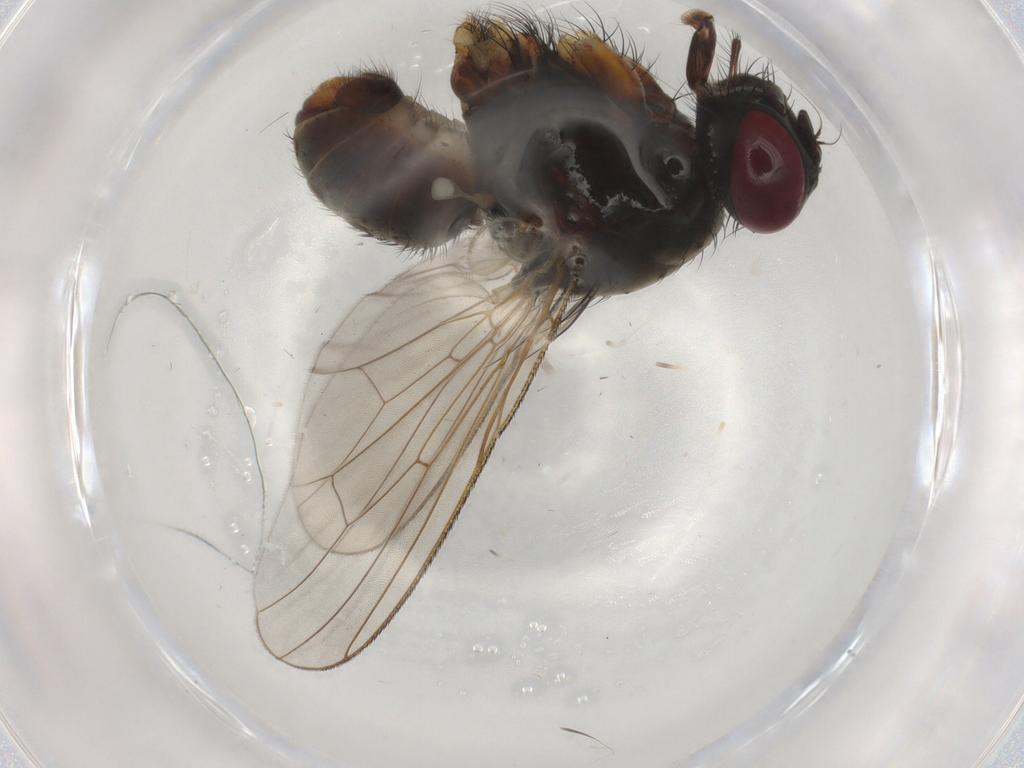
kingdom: Animalia
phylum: Arthropoda
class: Insecta
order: Diptera
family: Muscidae
